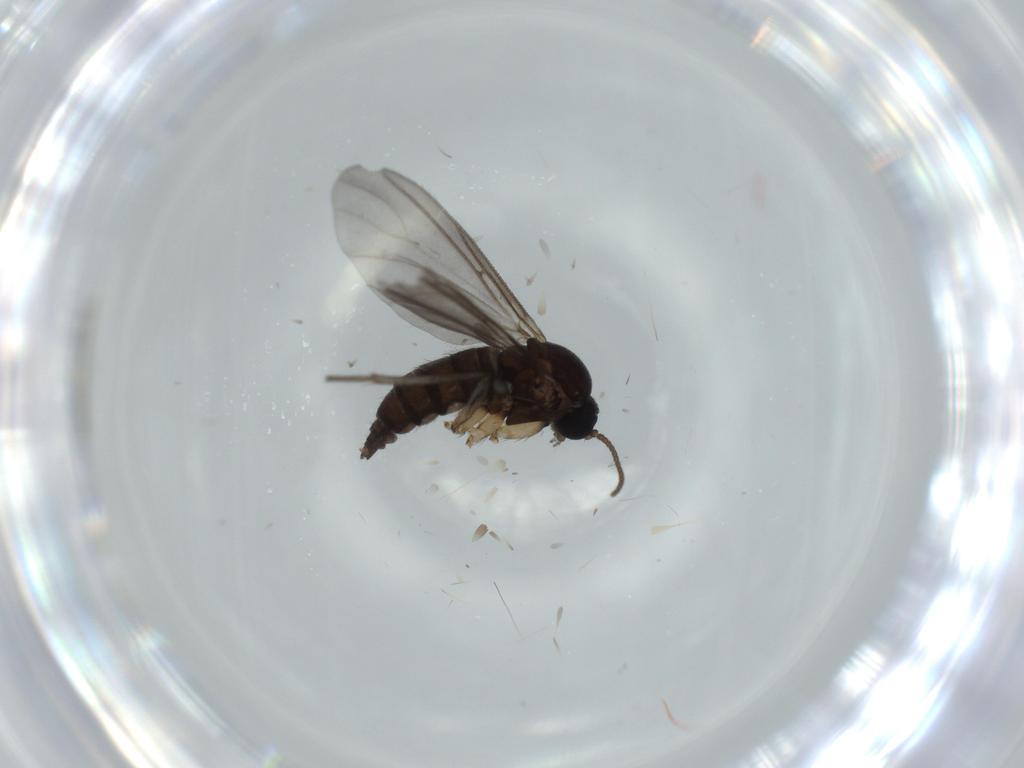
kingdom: Animalia
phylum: Arthropoda
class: Insecta
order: Diptera
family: Sciaridae
